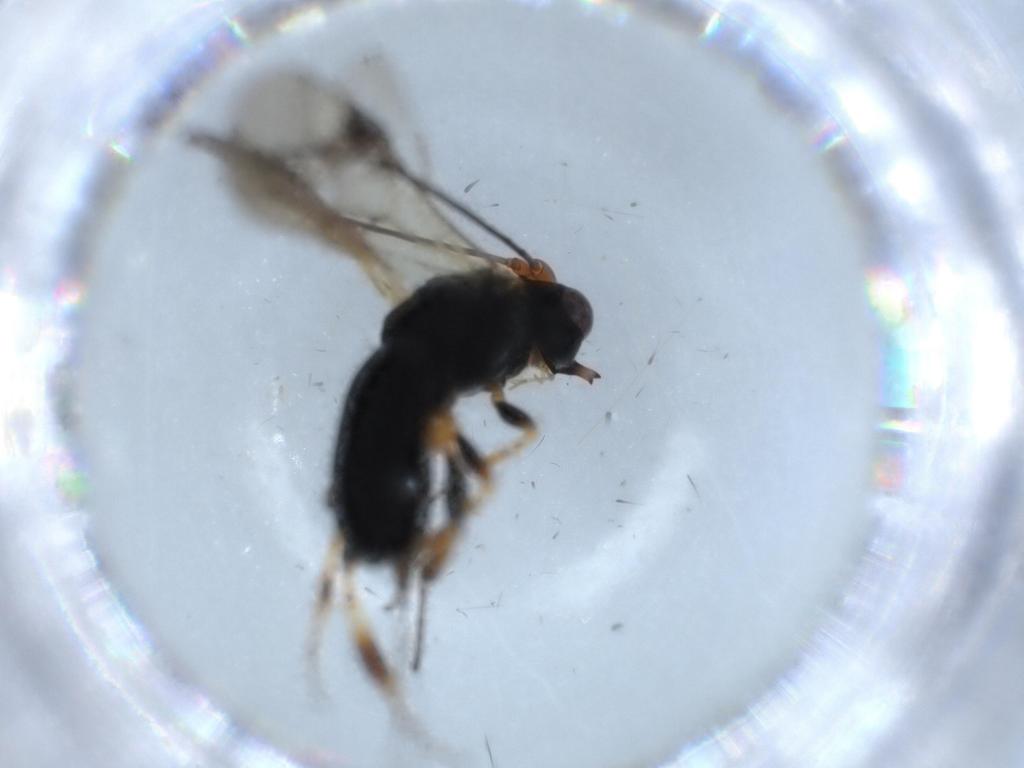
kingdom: Animalia
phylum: Arthropoda
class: Insecta
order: Hymenoptera
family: Braconidae
